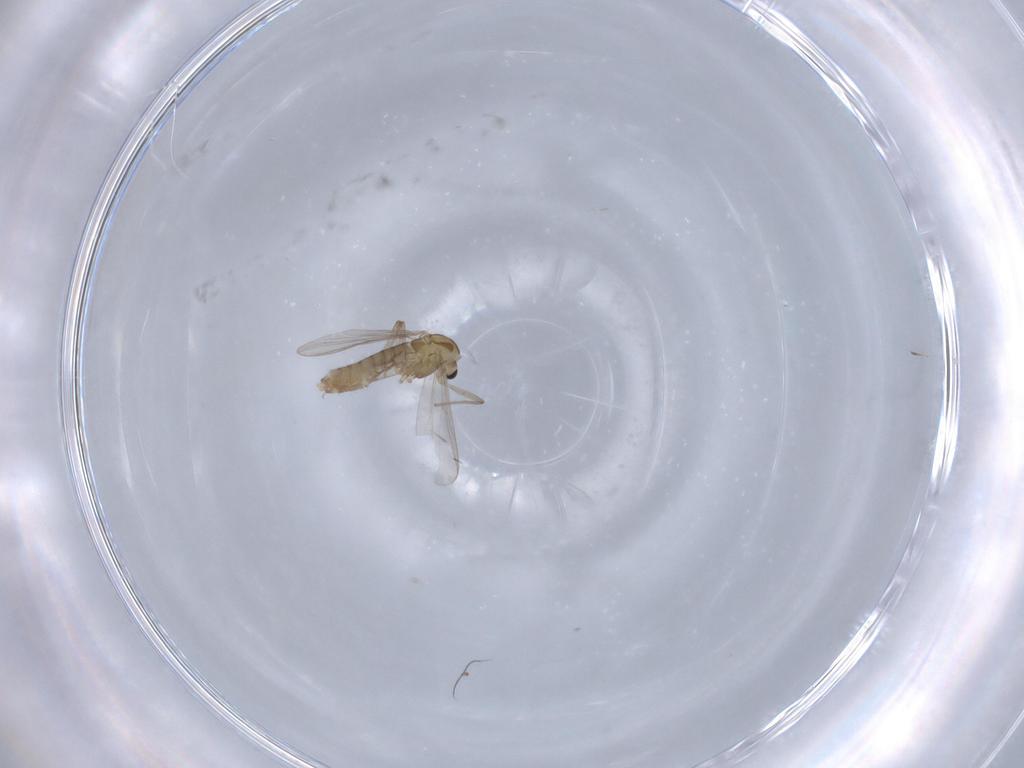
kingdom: Animalia
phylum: Arthropoda
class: Insecta
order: Diptera
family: Chironomidae
